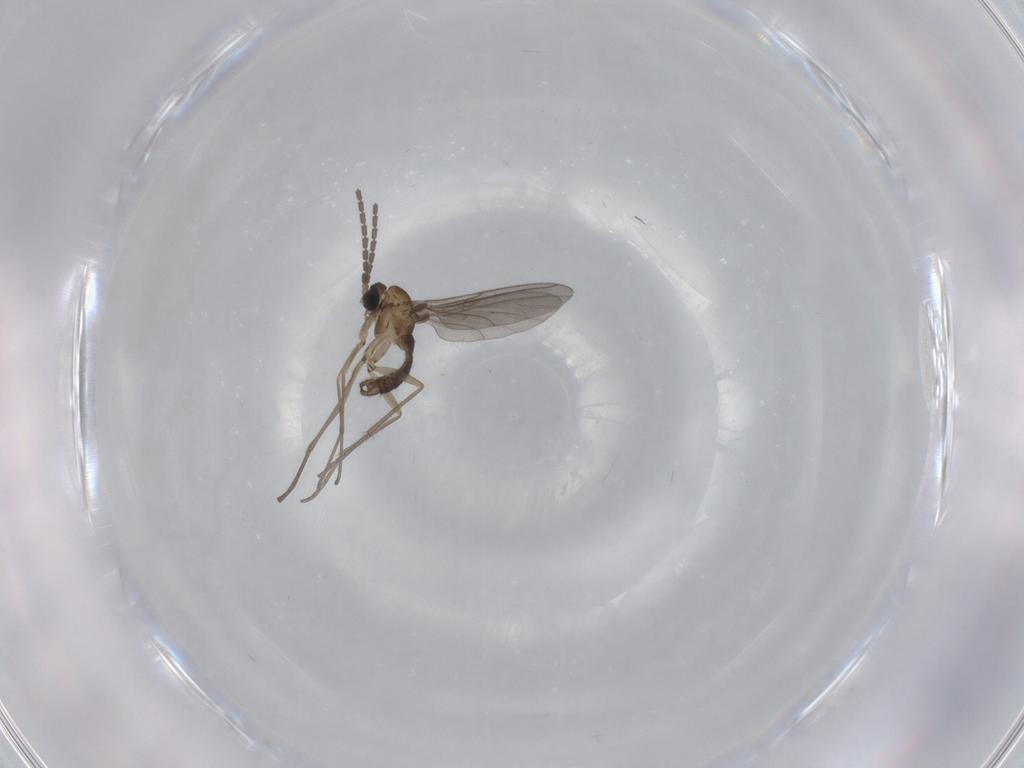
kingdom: Animalia
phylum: Arthropoda
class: Insecta
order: Diptera
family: Sciaridae
